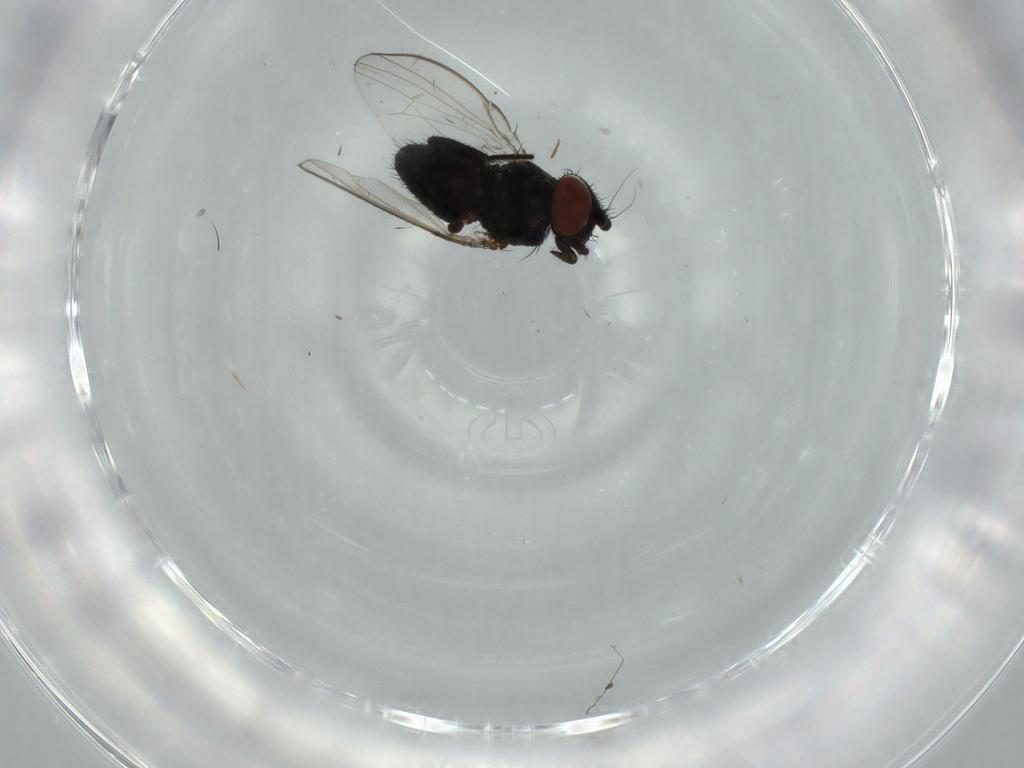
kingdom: Animalia
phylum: Arthropoda
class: Insecta
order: Diptera
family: Milichiidae
